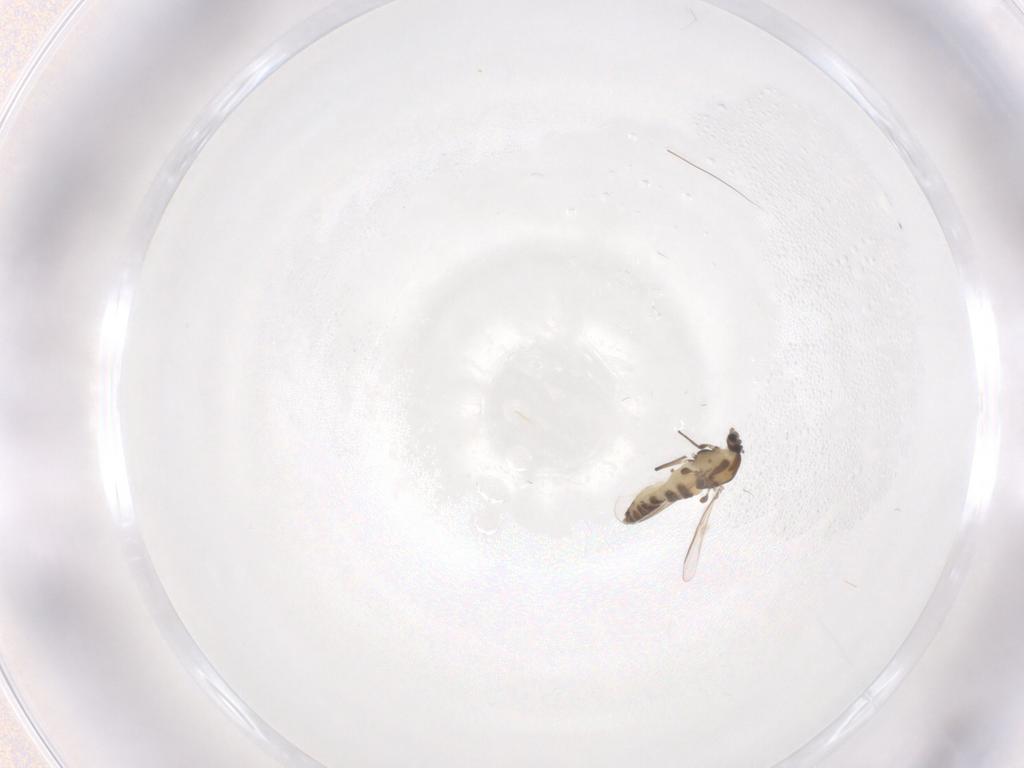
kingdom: Animalia
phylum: Arthropoda
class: Insecta
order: Diptera
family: Chironomidae
